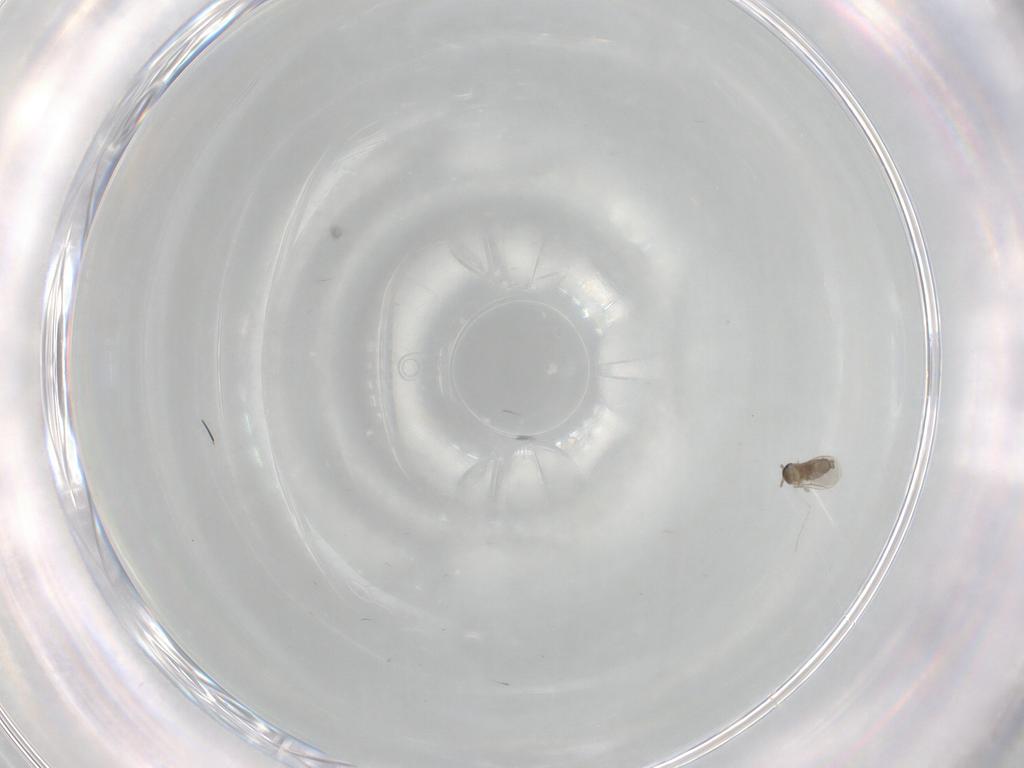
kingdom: Animalia
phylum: Arthropoda
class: Insecta
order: Diptera
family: Cecidomyiidae
